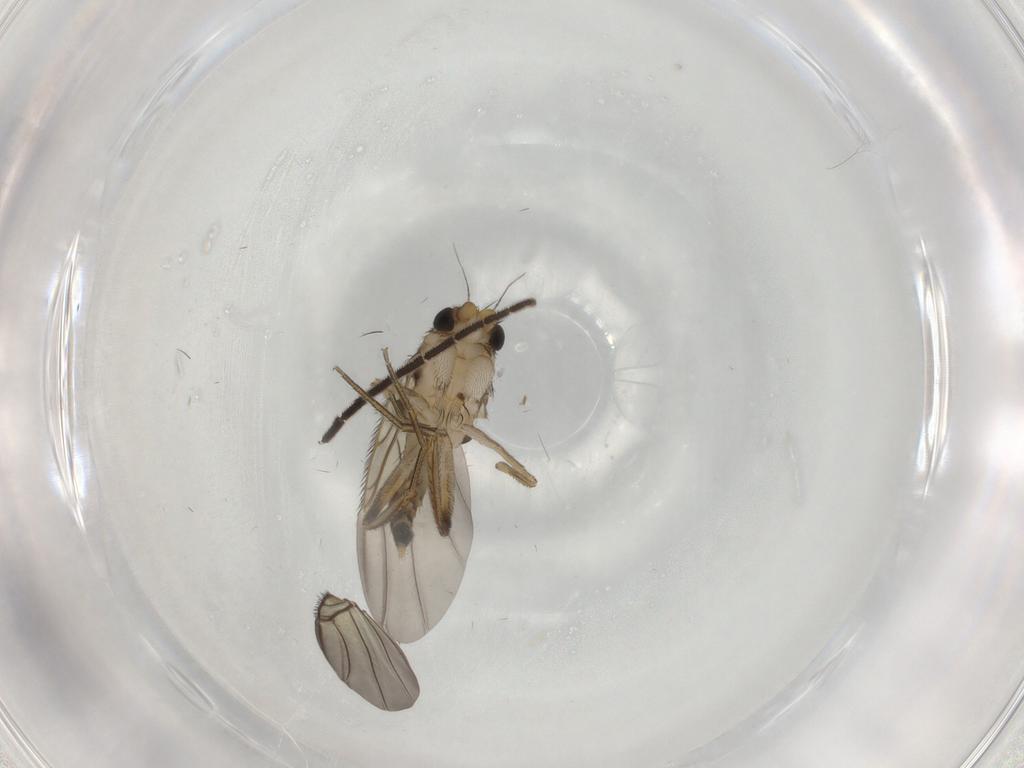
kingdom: Animalia
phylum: Arthropoda
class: Insecta
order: Diptera
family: Phoridae
